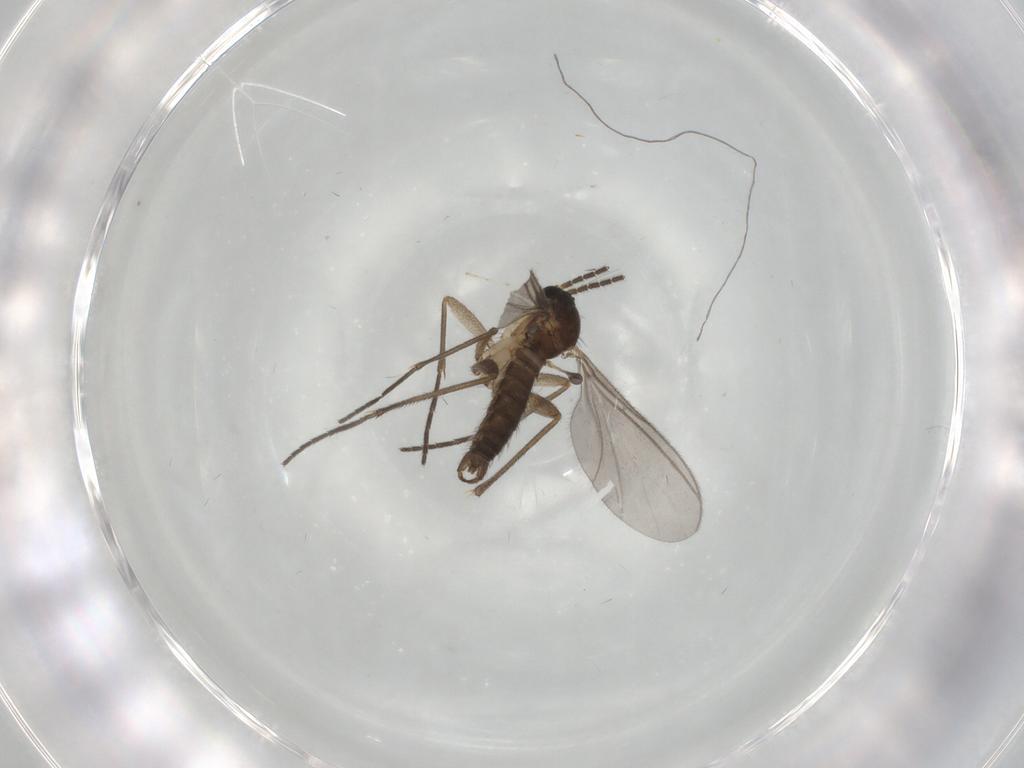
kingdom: Animalia
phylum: Arthropoda
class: Insecta
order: Diptera
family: Sciaridae
